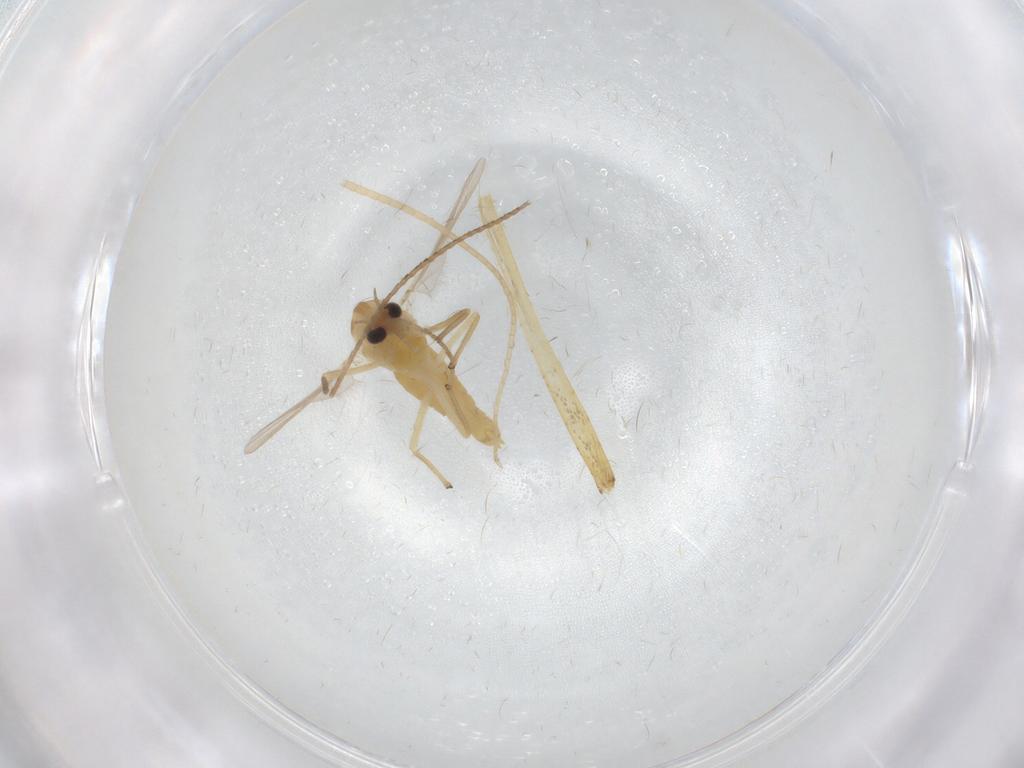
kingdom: Animalia
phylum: Arthropoda
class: Insecta
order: Diptera
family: Chironomidae
